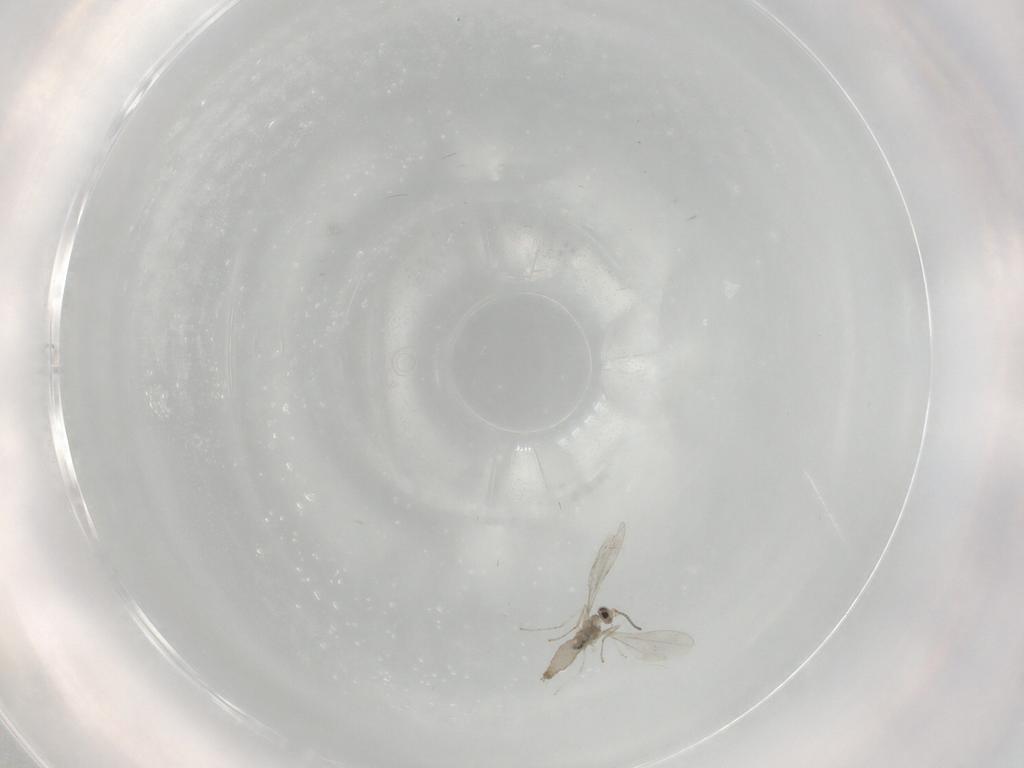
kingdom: Animalia
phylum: Arthropoda
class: Insecta
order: Diptera
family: Cecidomyiidae
